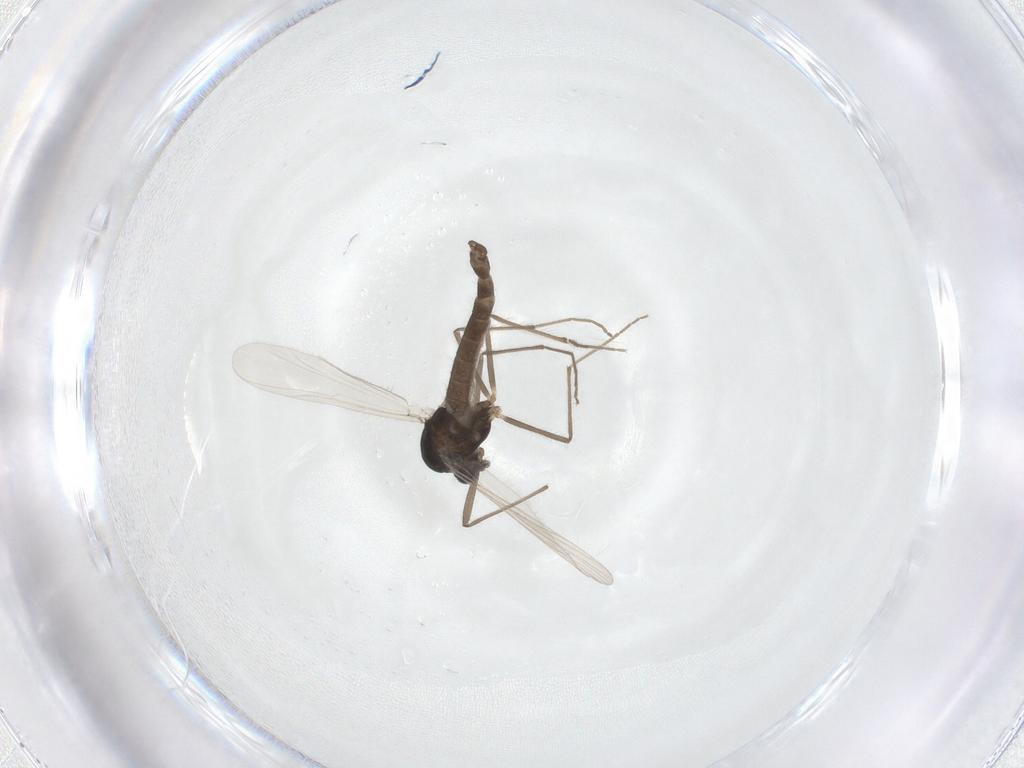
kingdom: Animalia
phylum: Arthropoda
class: Insecta
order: Diptera
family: Chironomidae
